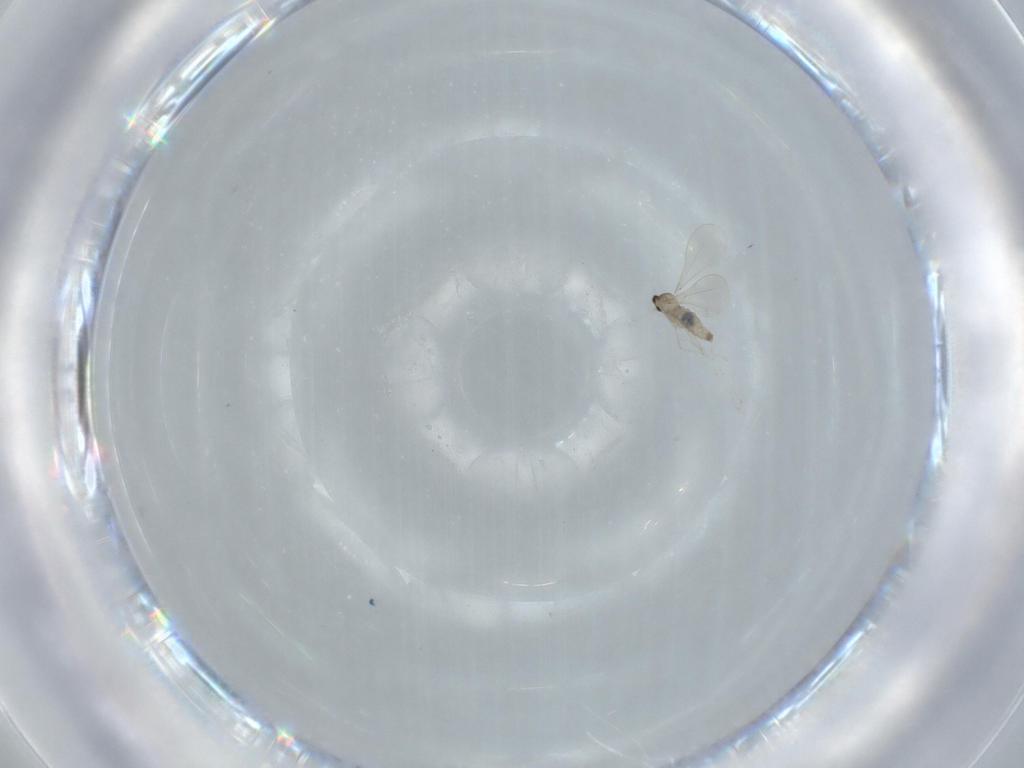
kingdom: Animalia
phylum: Arthropoda
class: Insecta
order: Diptera
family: Cecidomyiidae
